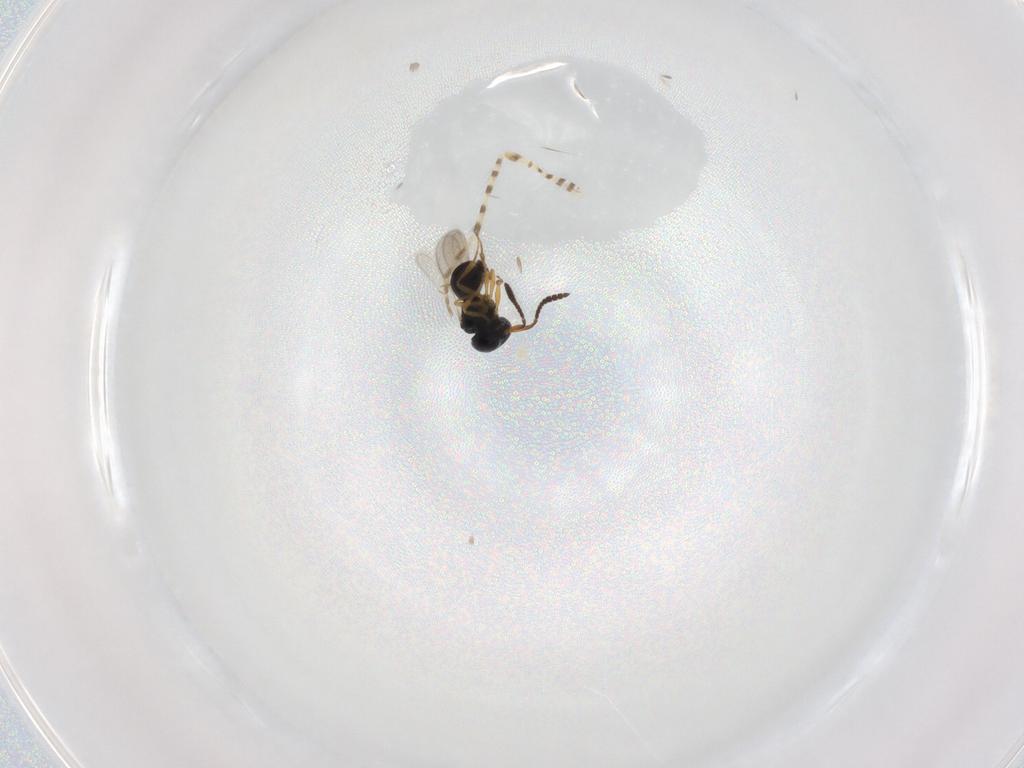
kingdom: Animalia
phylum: Arthropoda
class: Insecta
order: Hymenoptera
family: Scelionidae
